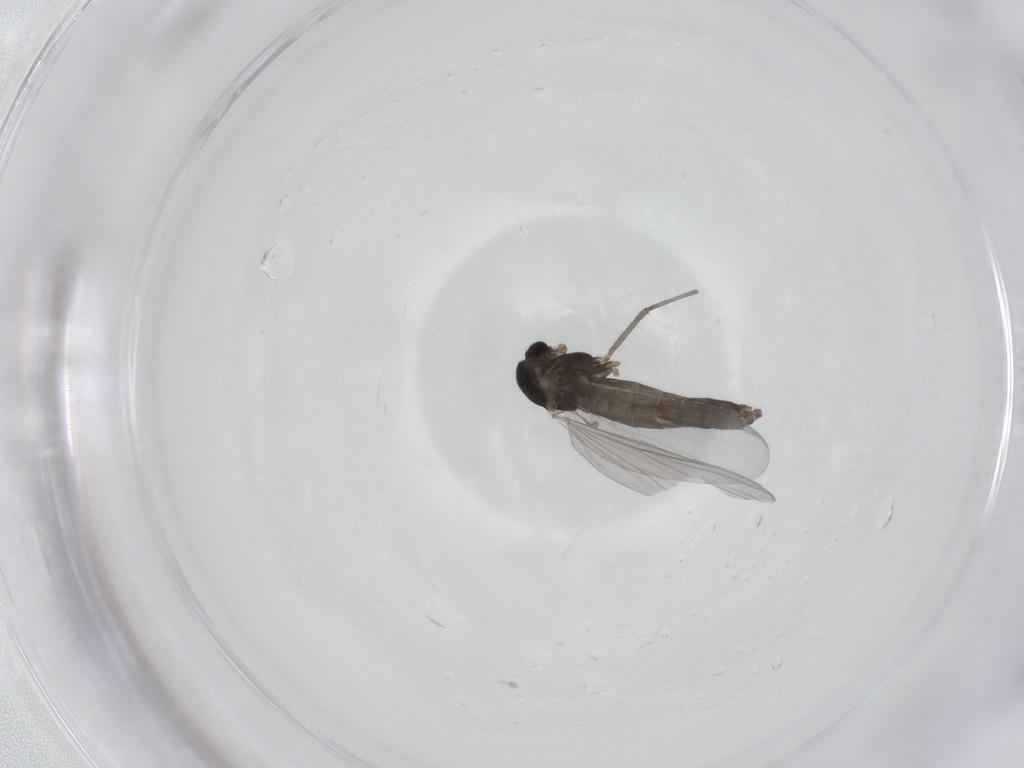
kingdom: Animalia
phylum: Arthropoda
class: Insecta
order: Diptera
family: Chironomidae
